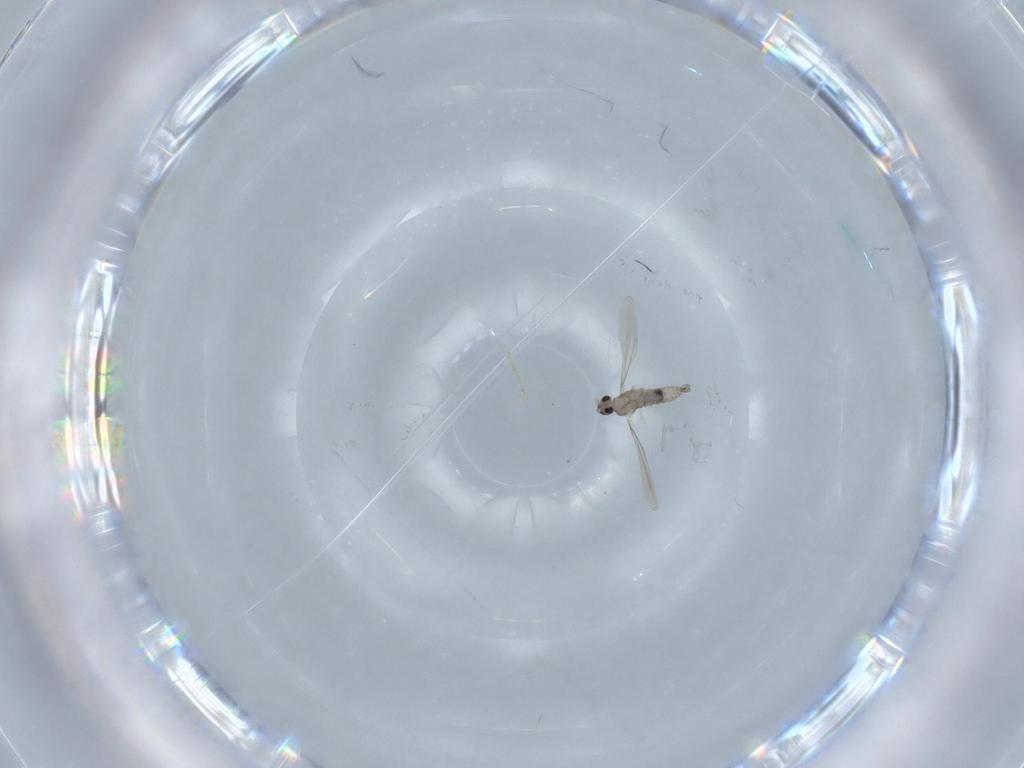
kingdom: Animalia
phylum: Arthropoda
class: Insecta
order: Diptera
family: Cecidomyiidae
